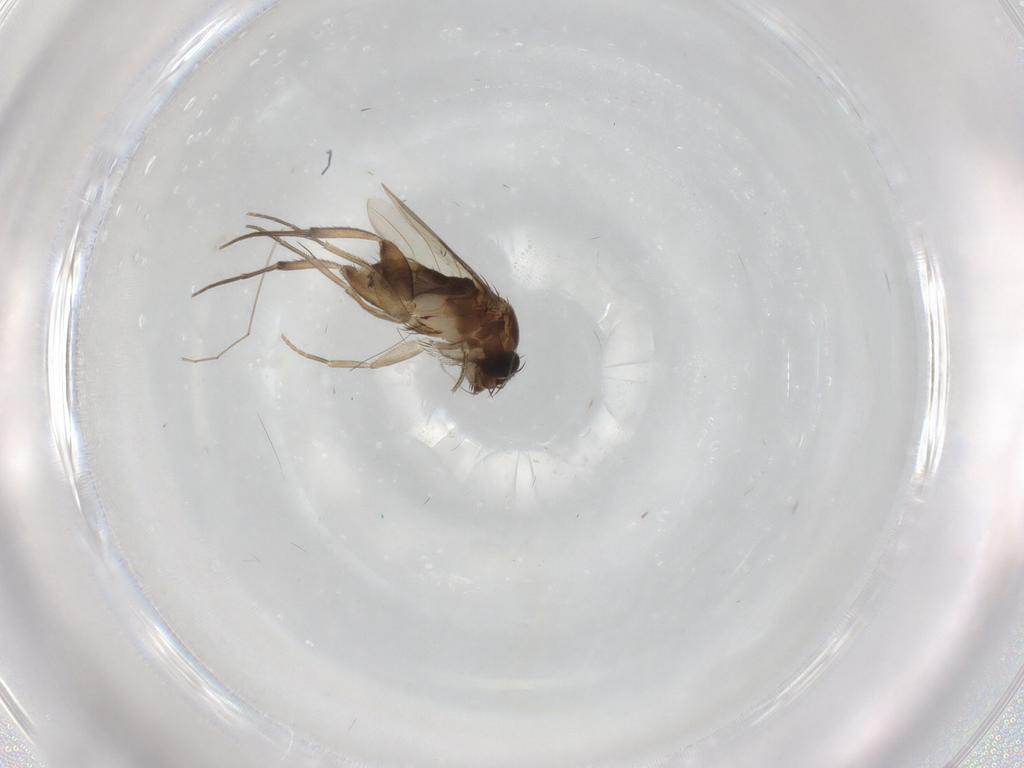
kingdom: Animalia
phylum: Arthropoda
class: Insecta
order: Diptera
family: Phoridae
